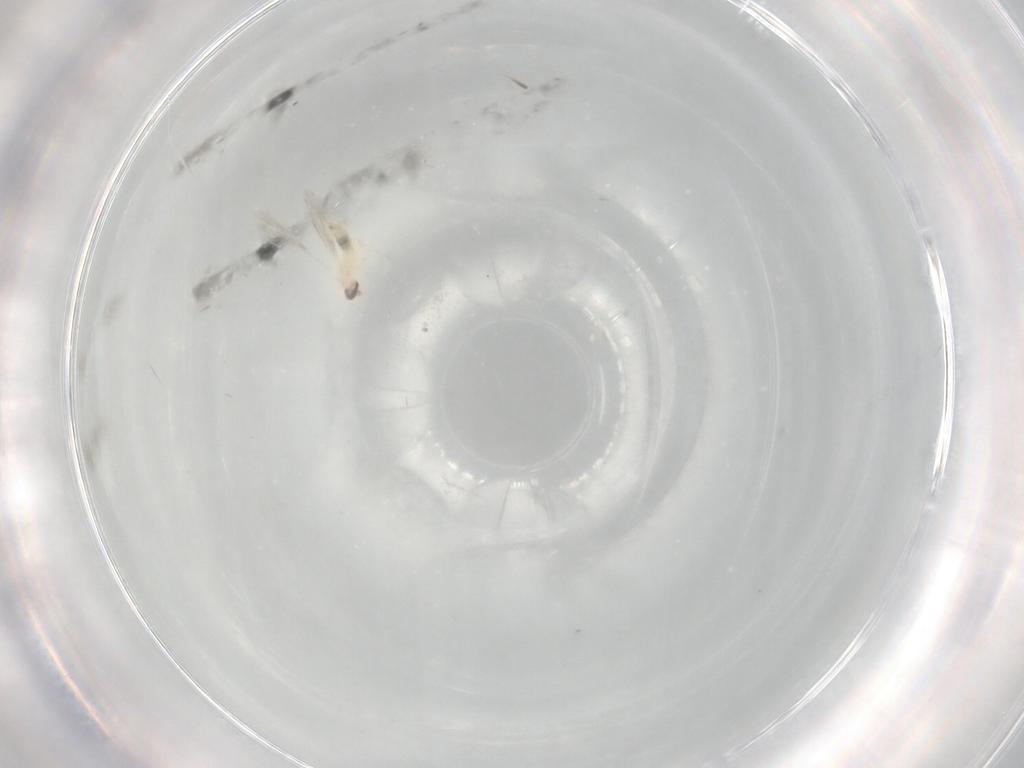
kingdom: Animalia
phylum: Arthropoda
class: Insecta
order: Diptera
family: Cecidomyiidae
